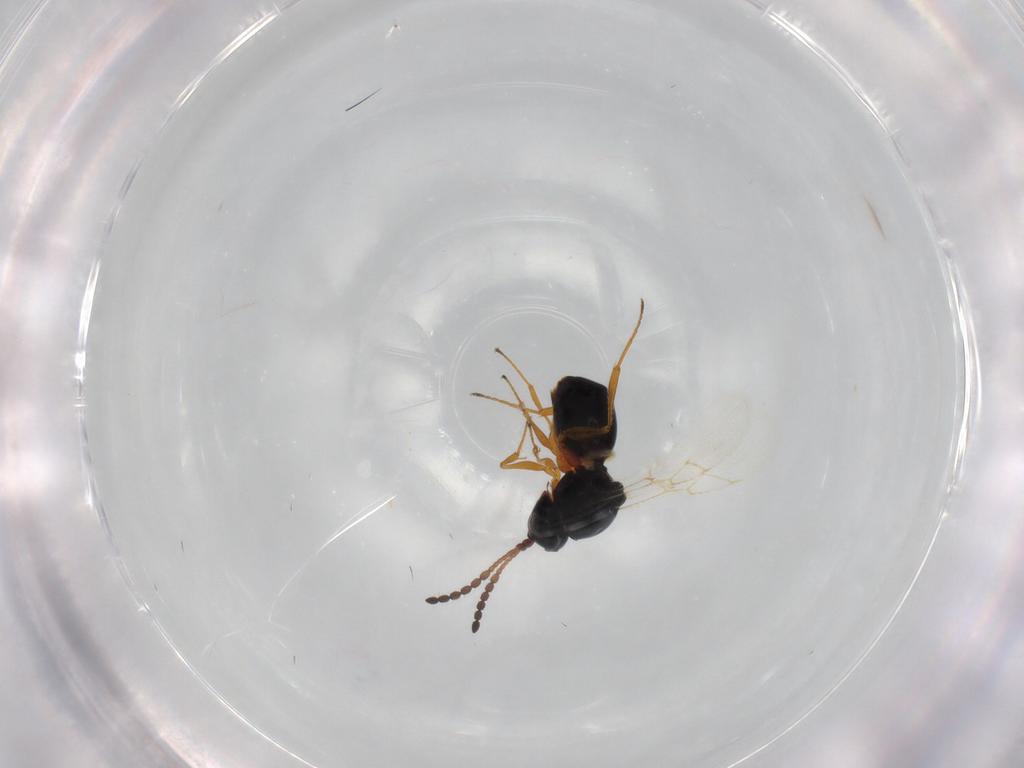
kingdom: Animalia
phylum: Arthropoda
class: Insecta
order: Hymenoptera
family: Figitidae
